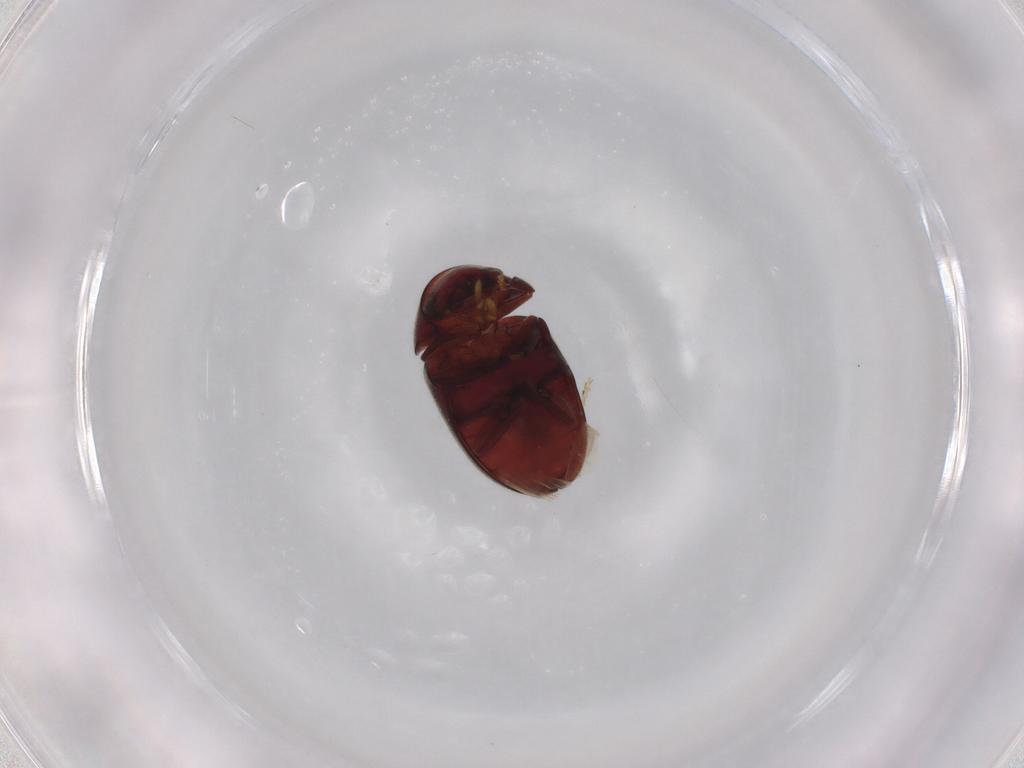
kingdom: Animalia
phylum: Arthropoda
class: Insecta
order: Coleoptera
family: Ptinidae
